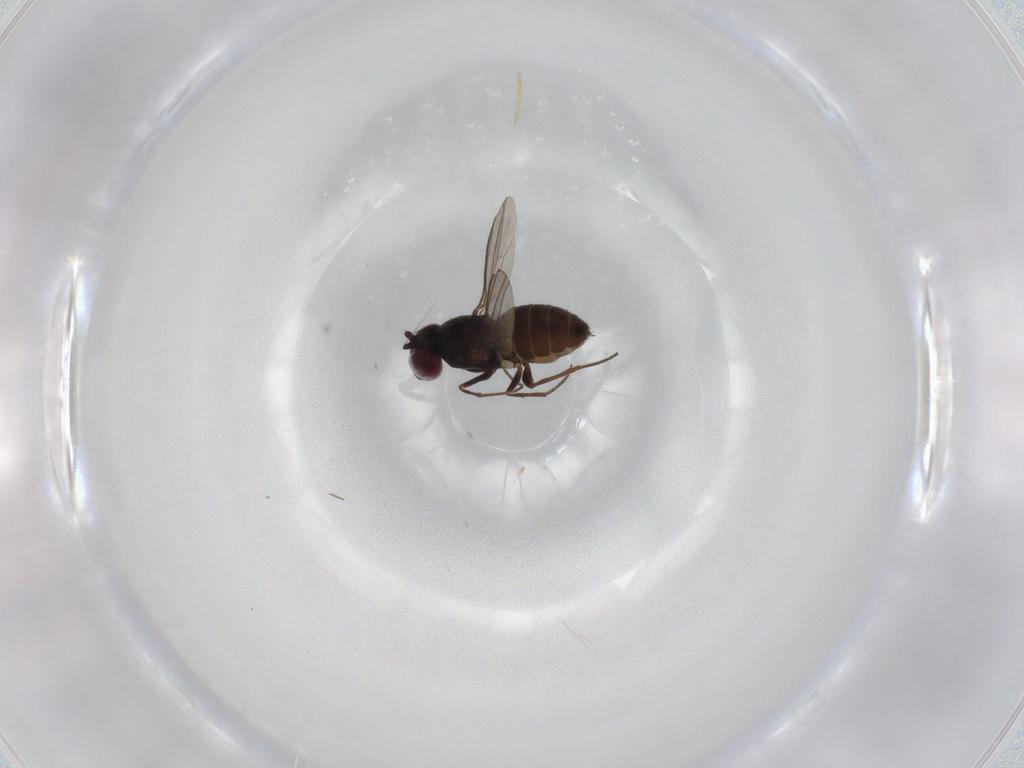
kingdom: Animalia
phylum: Arthropoda
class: Insecta
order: Diptera
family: Dolichopodidae
